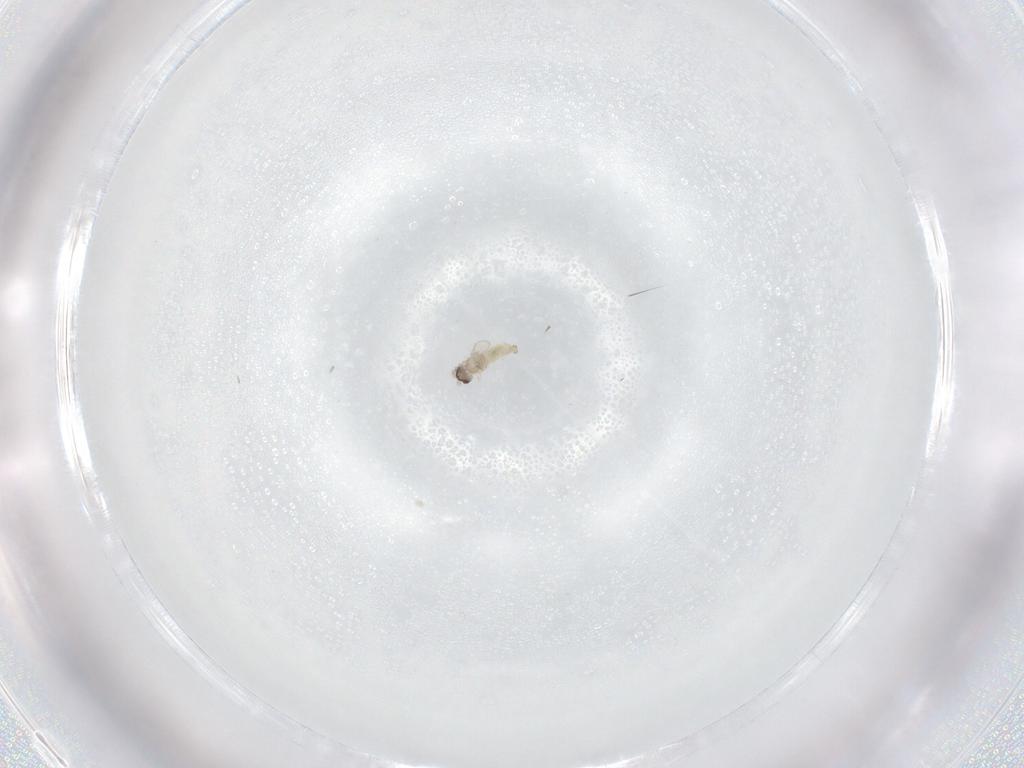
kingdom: Animalia
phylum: Arthropoda
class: Insecta
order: Diptera
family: Cecidomyiidae
